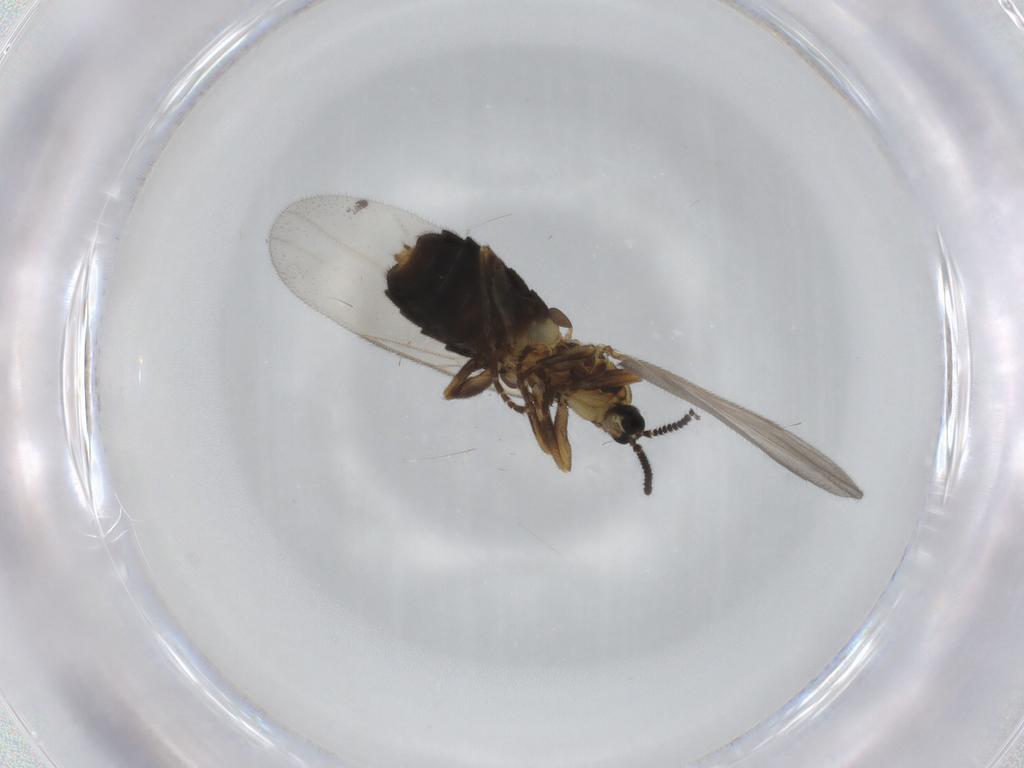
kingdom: Animalia
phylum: Arthropoda
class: Insecta
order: Diptera
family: Scatopsidae
